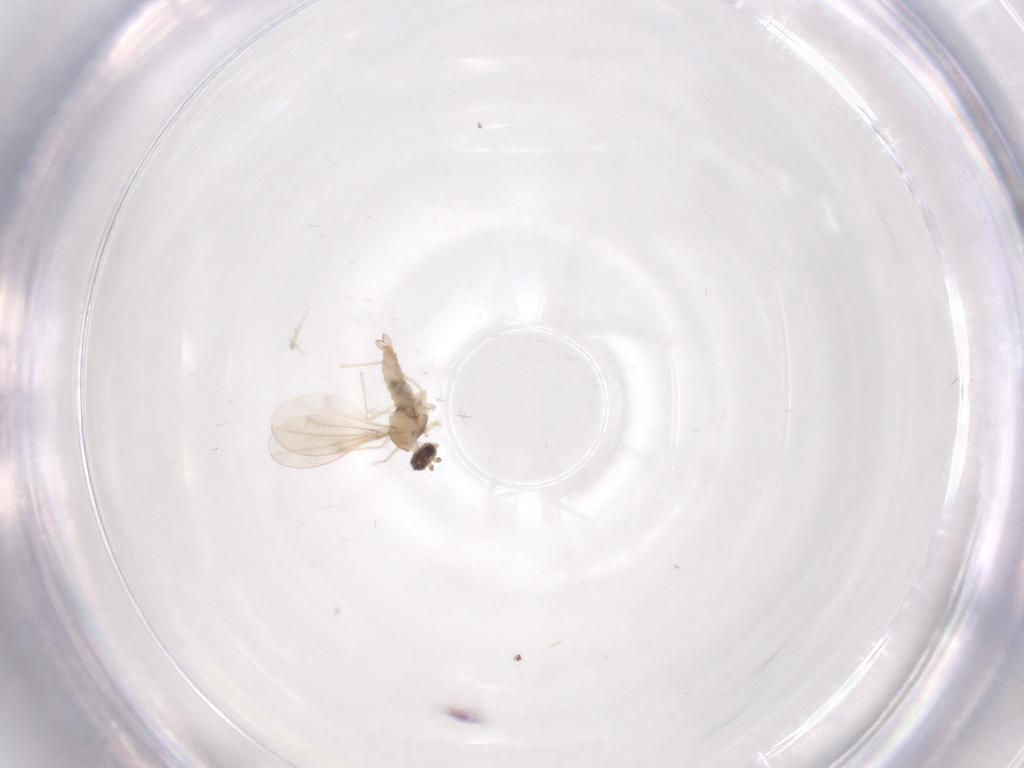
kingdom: Animalia
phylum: Arthropoda
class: Insecta
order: Diptera
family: Cecidomyiidae
